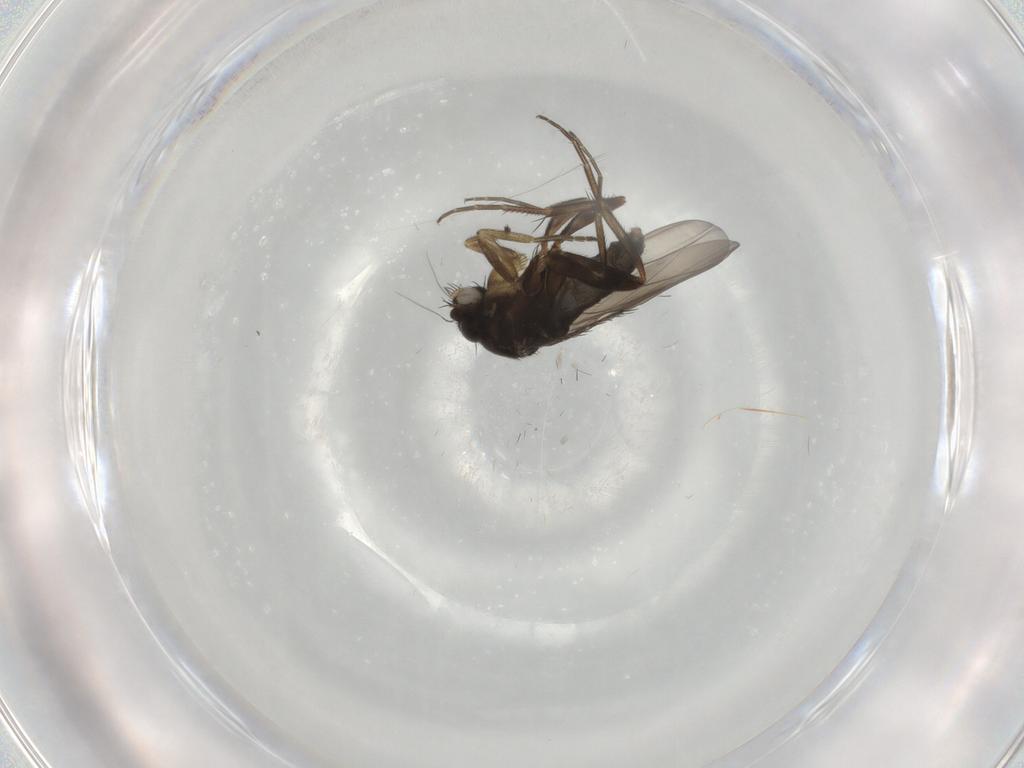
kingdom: Animalia
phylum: Arthropoda
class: Insecta
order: Diptera
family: Phoridae
